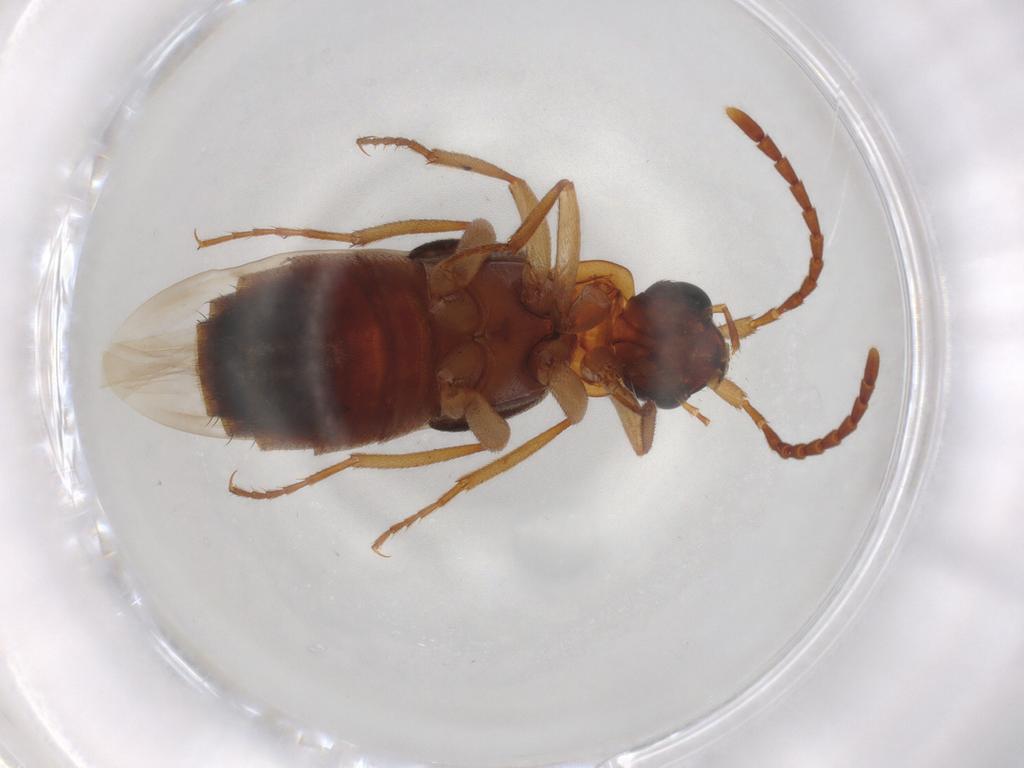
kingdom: Animalia
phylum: Arthropoda
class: Insecta
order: Coleoptera
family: Staphylinidae
